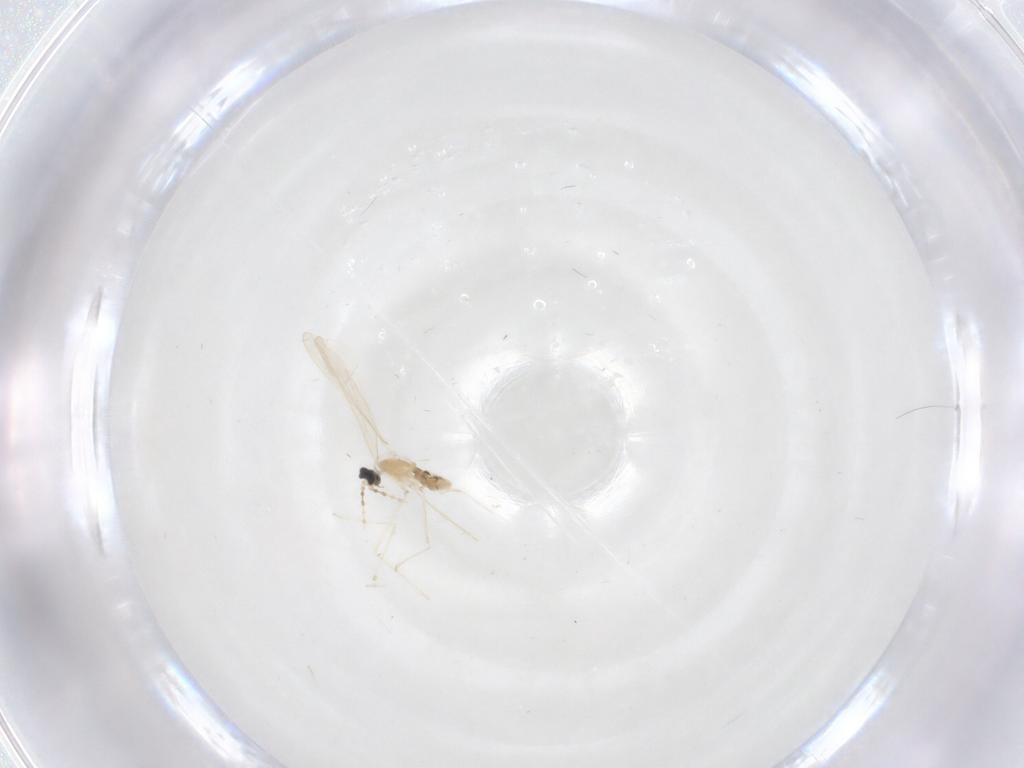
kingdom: Animalia
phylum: Arthropoda
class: Insecta
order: Diptera
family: Cecidomyiidae
